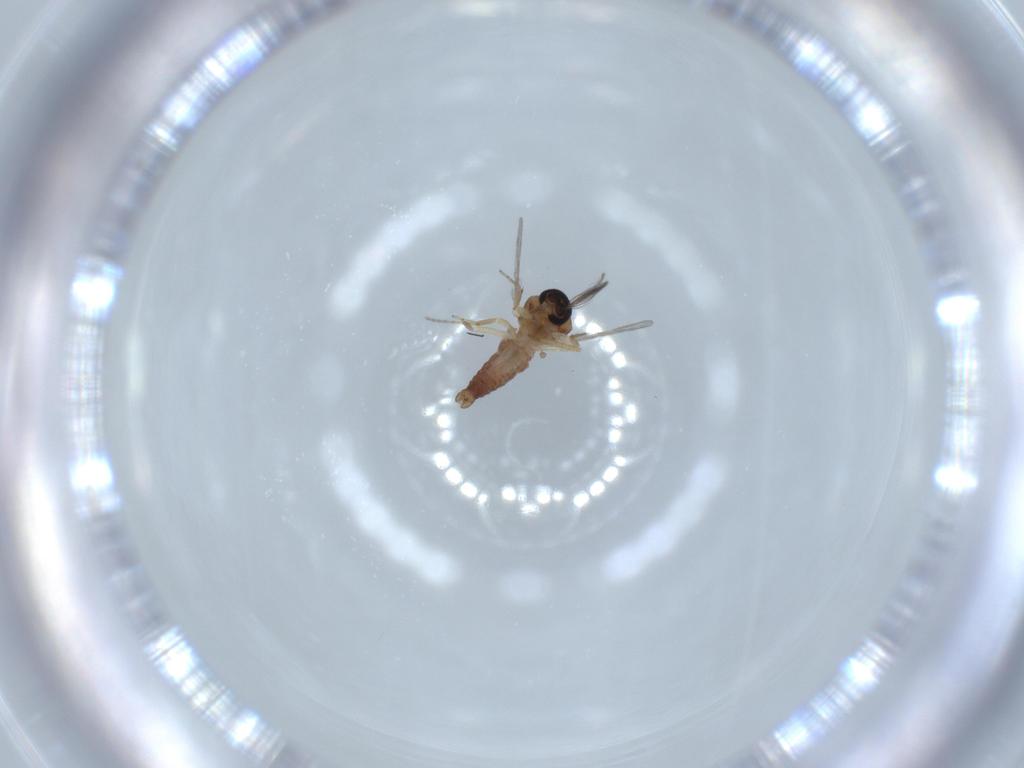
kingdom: Animalia
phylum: Arthropoda
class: Insecta
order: Diptera
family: Ceratopogonidae
